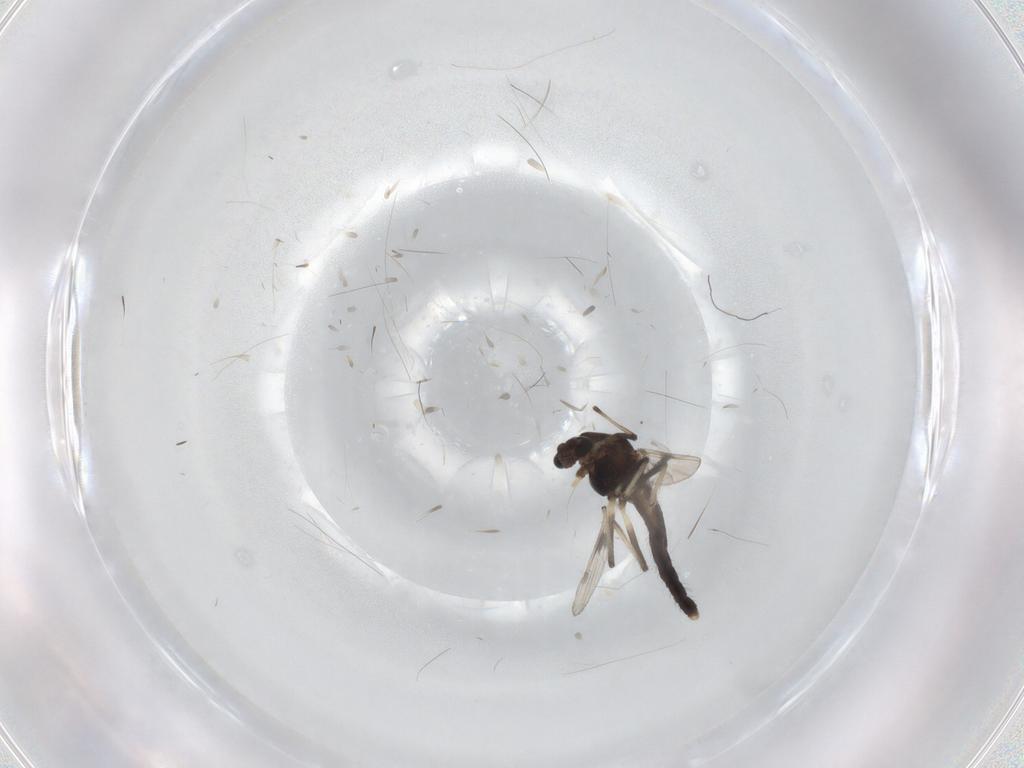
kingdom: Animalia
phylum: Arthropoda
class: Insecta
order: Diptera
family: Chironomidae
